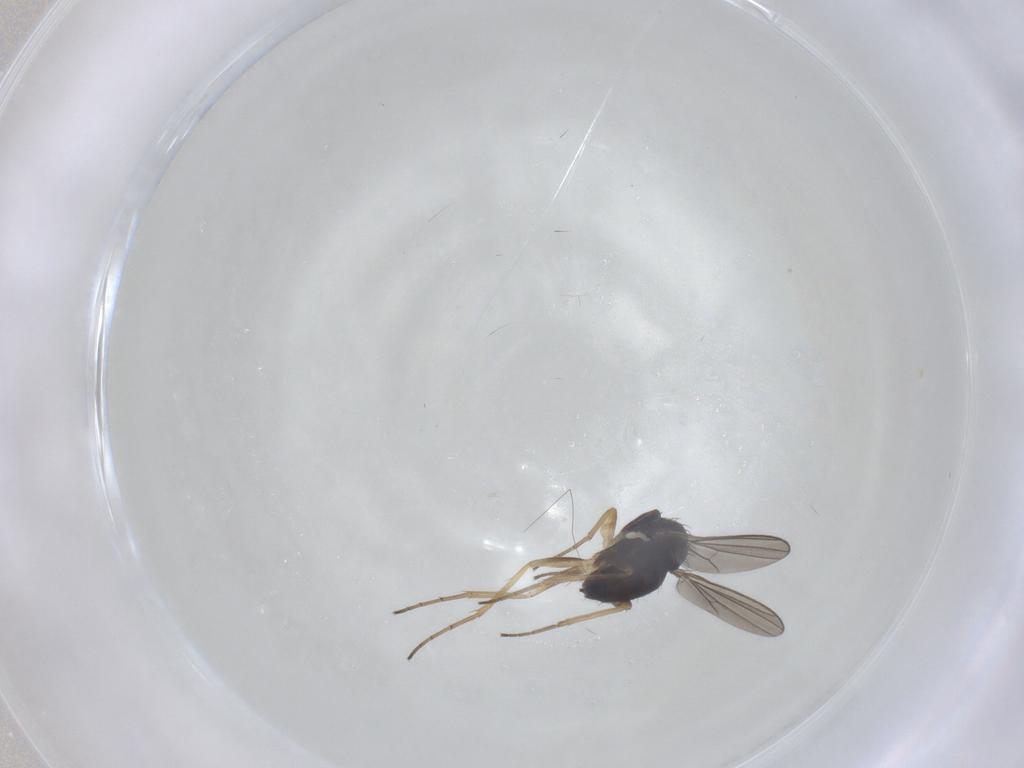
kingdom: Animalia
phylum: Arthropoda
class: Insecta
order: Diptera
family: Dolichopodidae
